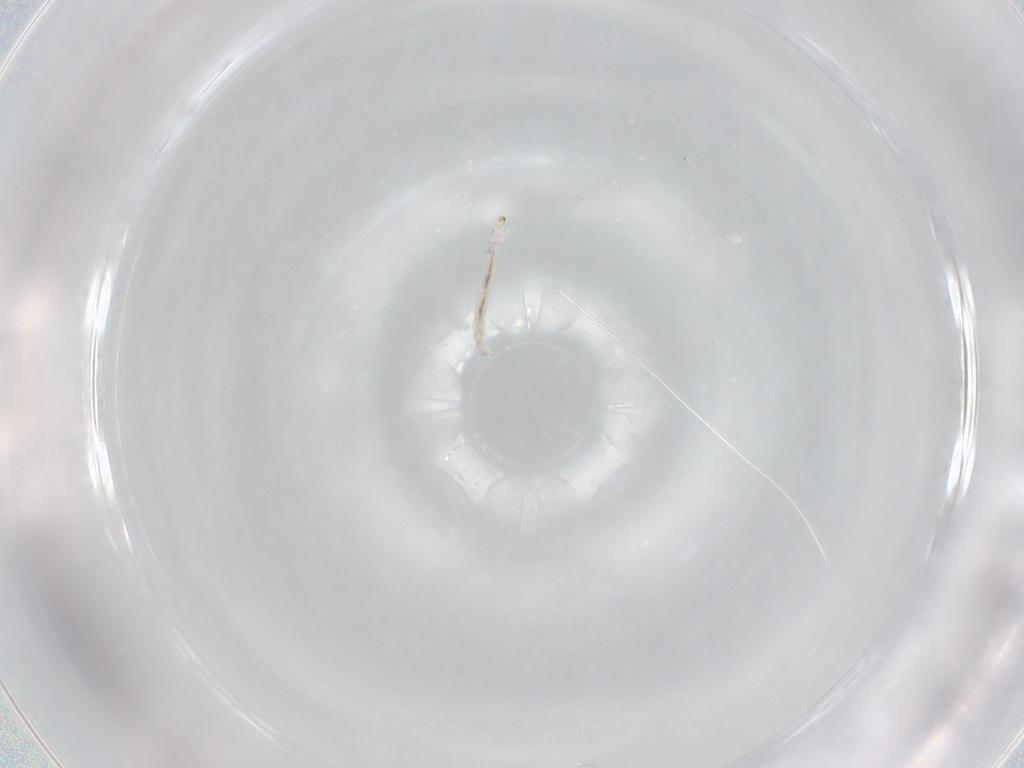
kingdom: Animalia
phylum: Arthropoda
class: Insecta
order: Diptera
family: Chironomidae
